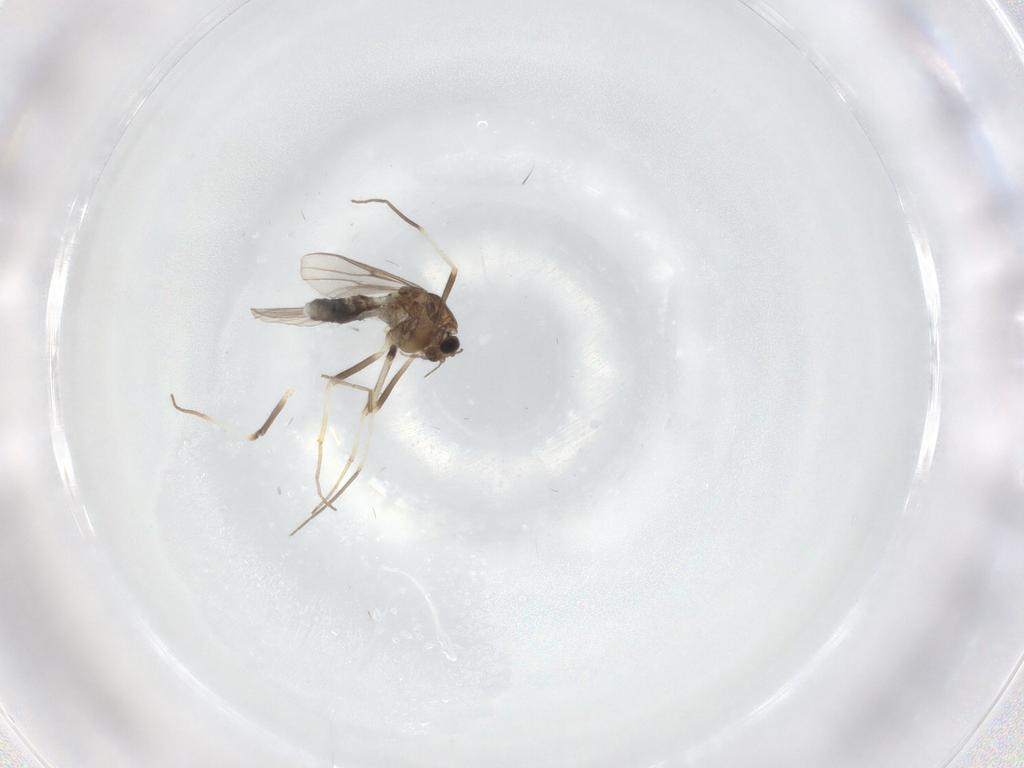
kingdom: Animalia
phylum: Arthropoda
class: Insecta
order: Diptera
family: Chironomidae
